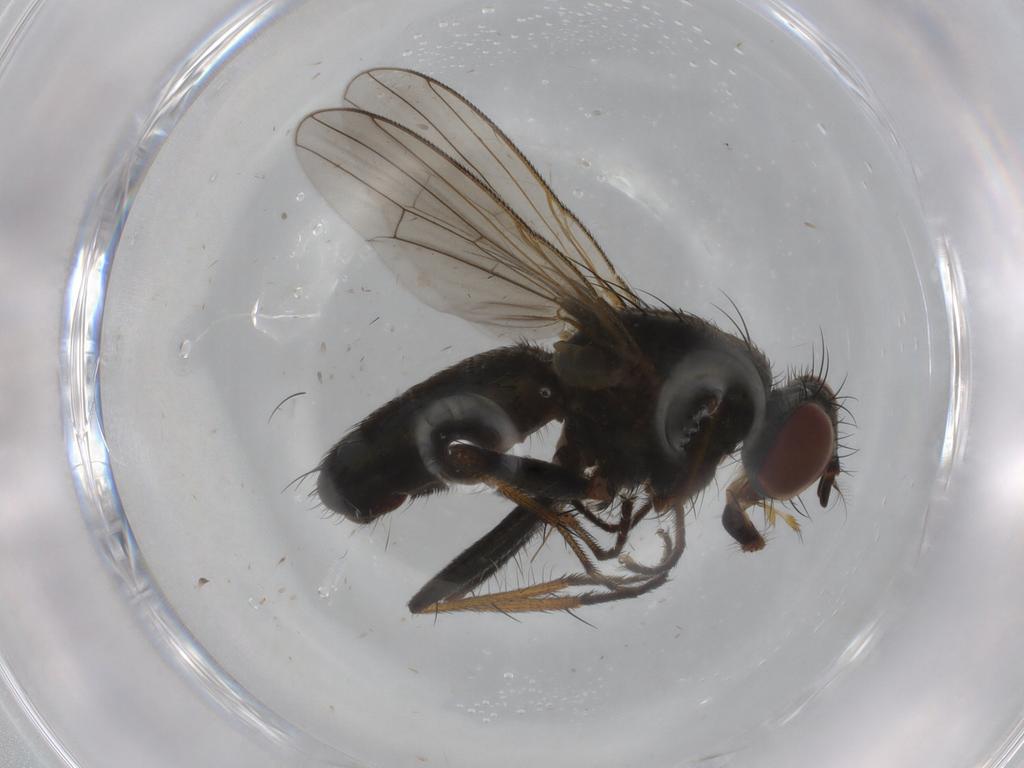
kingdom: Animalia
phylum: Arthropoda
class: Insecta
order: Diptera
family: Muscidae
